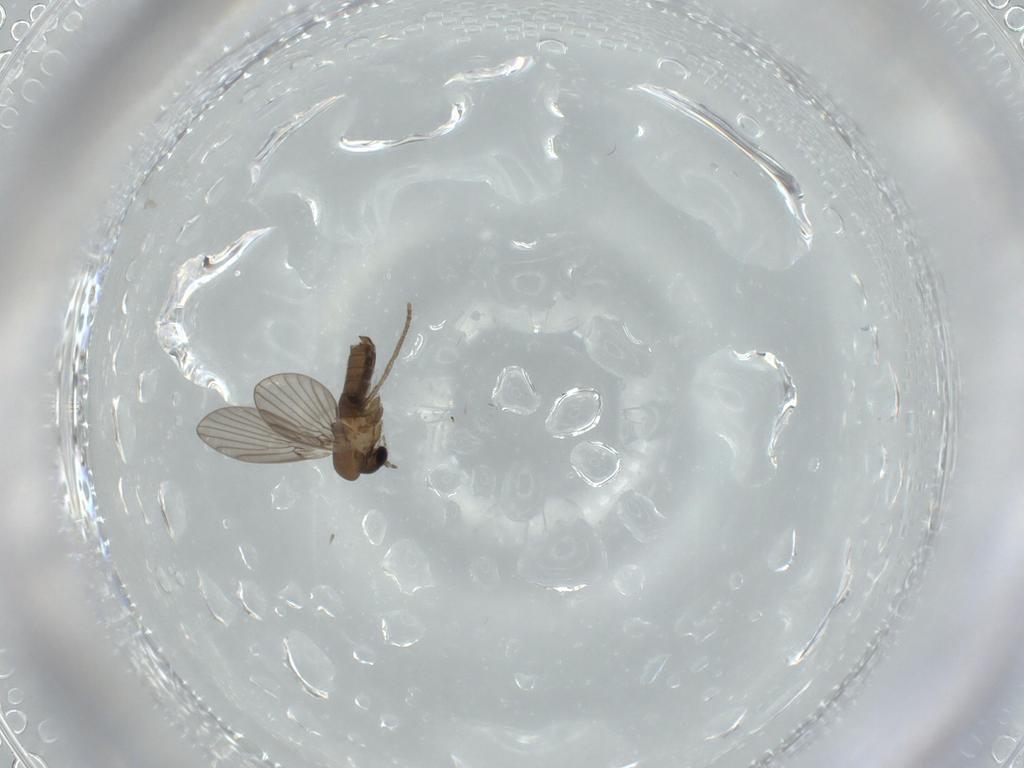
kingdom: Animalia
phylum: Arthropoda
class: Insecta
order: Diptera
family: Psychodidae
